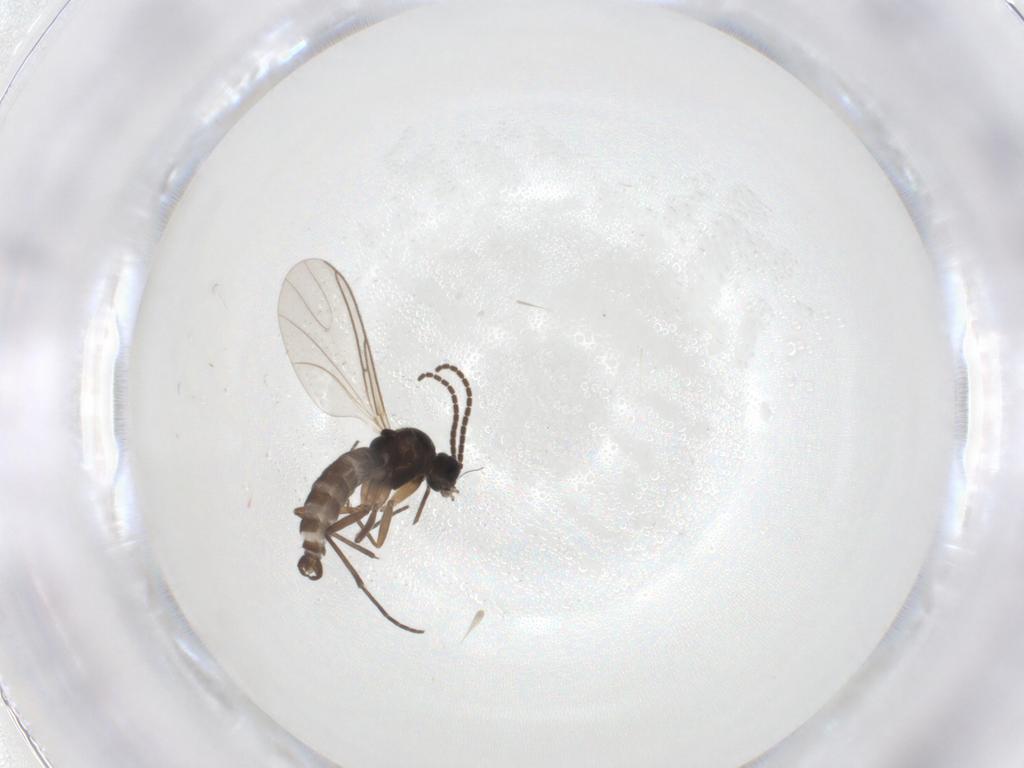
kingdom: Animalia
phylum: Arthropoda
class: Insecta
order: Diptera
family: Sciaridae
